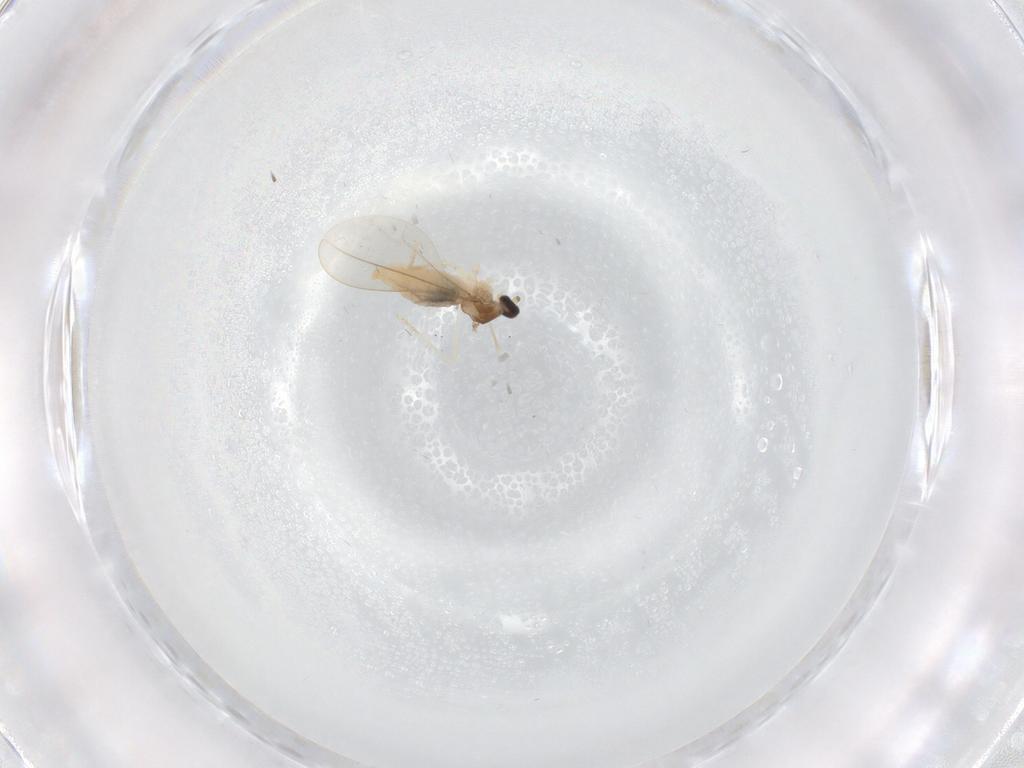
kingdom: Animalia
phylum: Arthropoda
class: Insecta
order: Diptera
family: Cecidomyiidae
